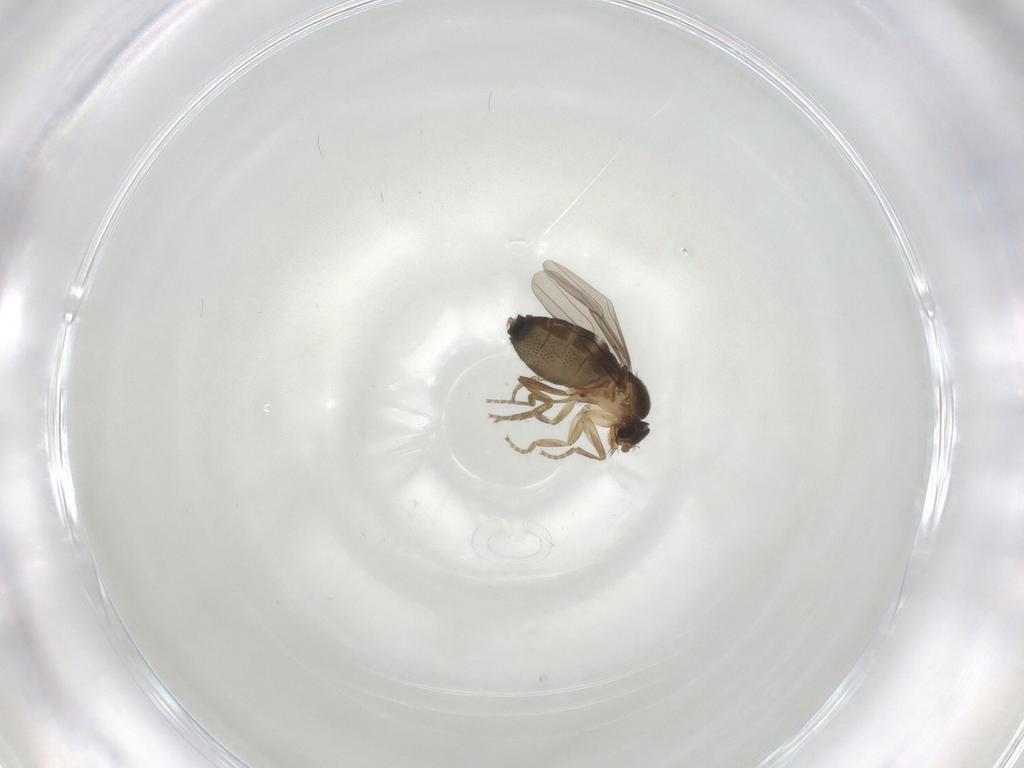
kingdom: Animalia
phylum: Arthropoda
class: Insecta
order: Diptera
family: Phoridae
